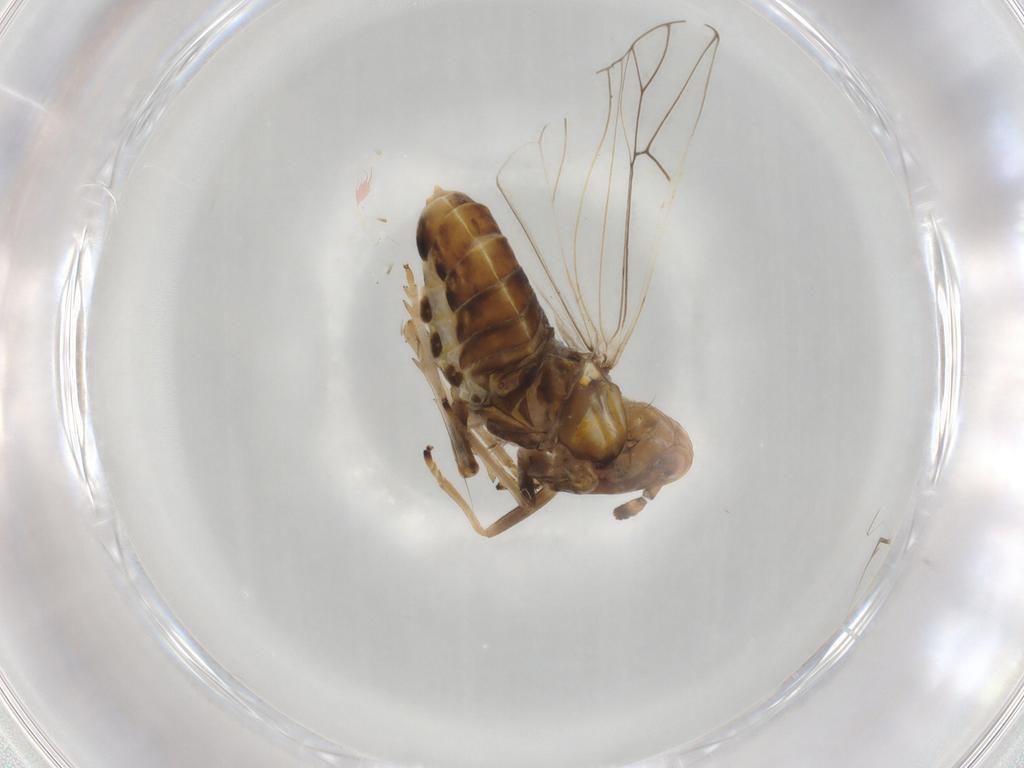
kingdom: Animalia
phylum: Arthropoda
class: Insecta
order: Hemiptera
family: Delphacidae
